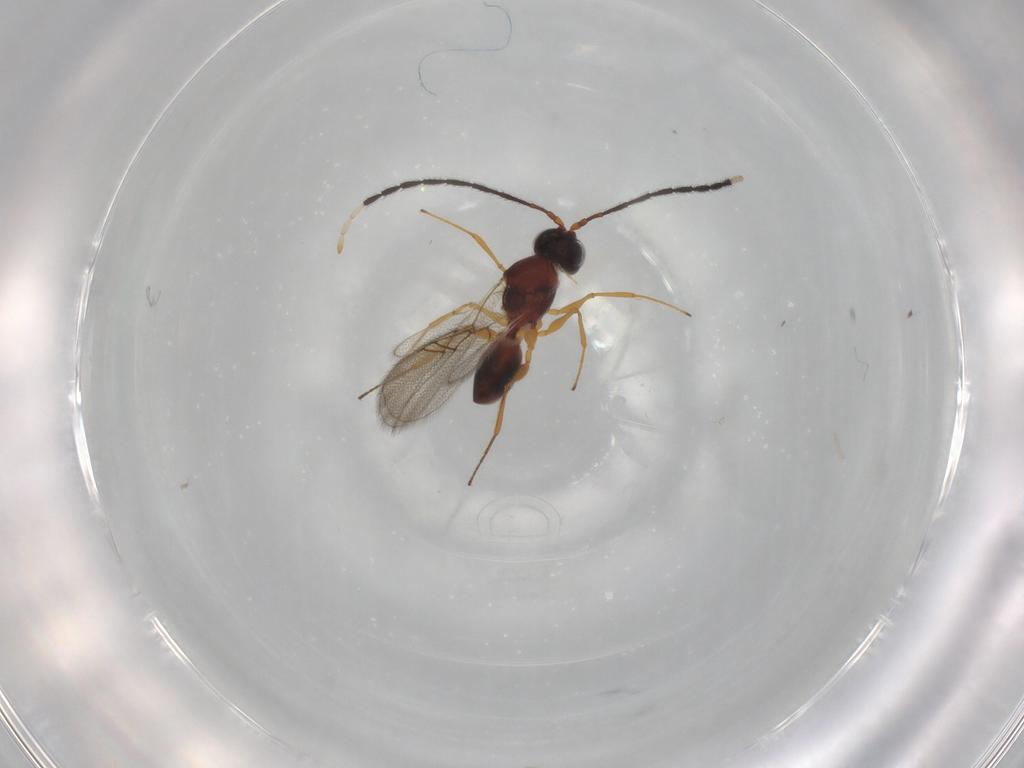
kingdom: Animalia
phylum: Arthropoda
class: Insecta
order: Hymenoptera
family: Figitidae
